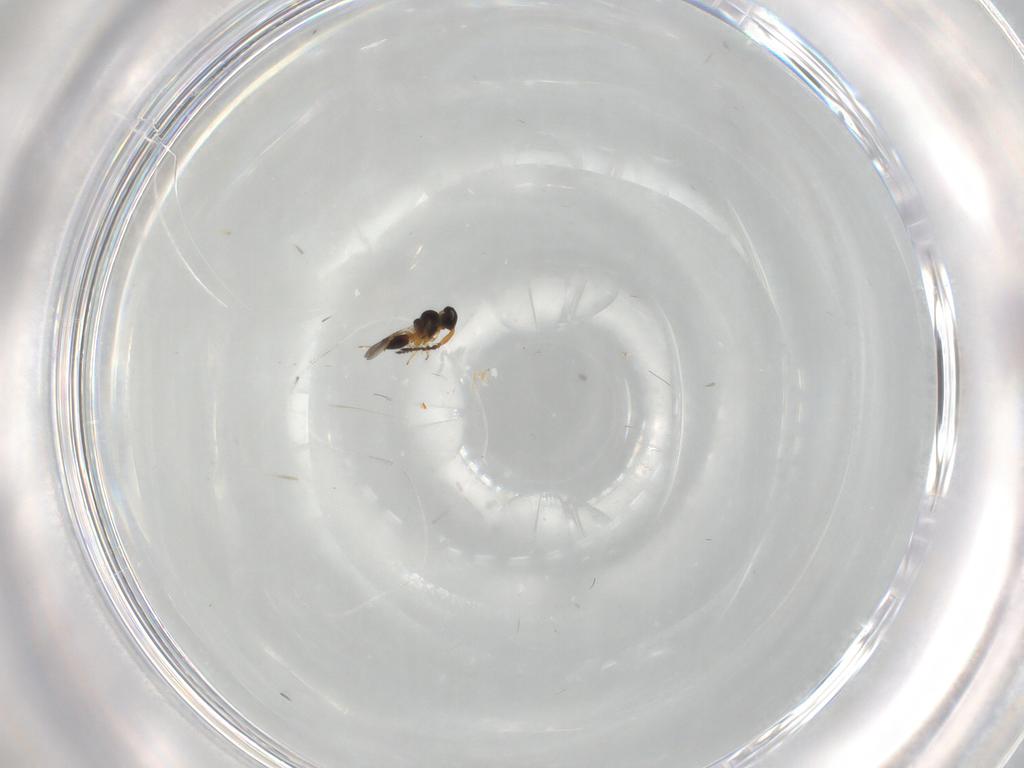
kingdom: Animalia
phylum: Arthropoda
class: Insecta
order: Hymenoptera
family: Platygastridae
